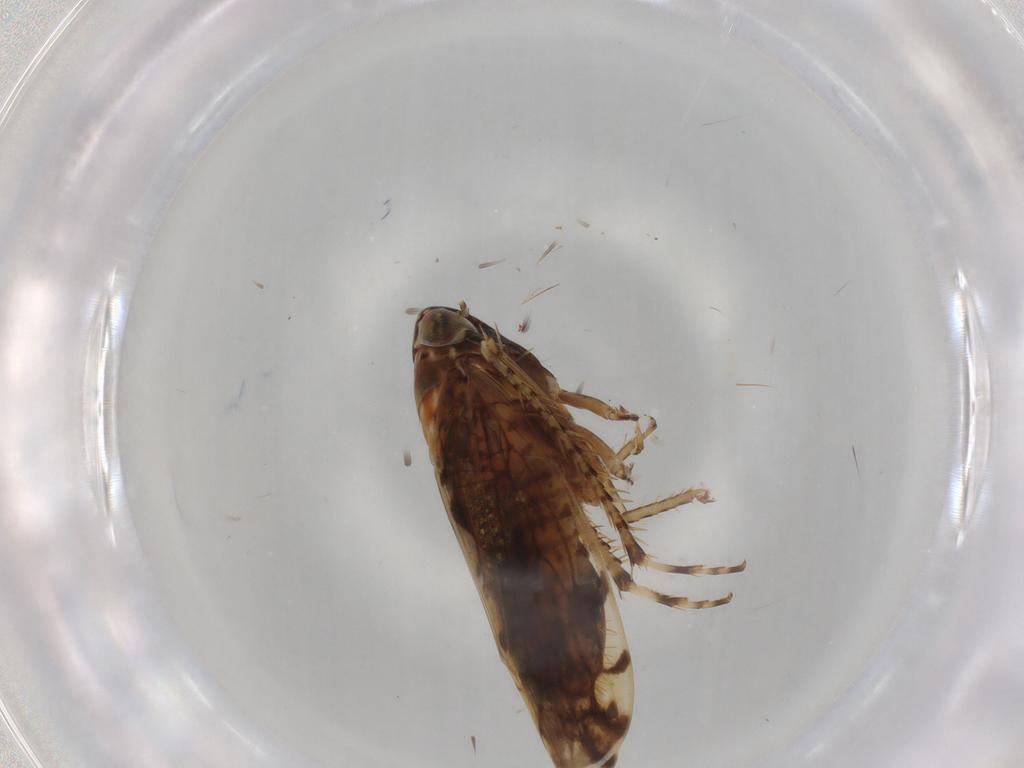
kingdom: Animalia
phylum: Arthropoda
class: Insecta
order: Hemiptera
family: Cicadellidae
